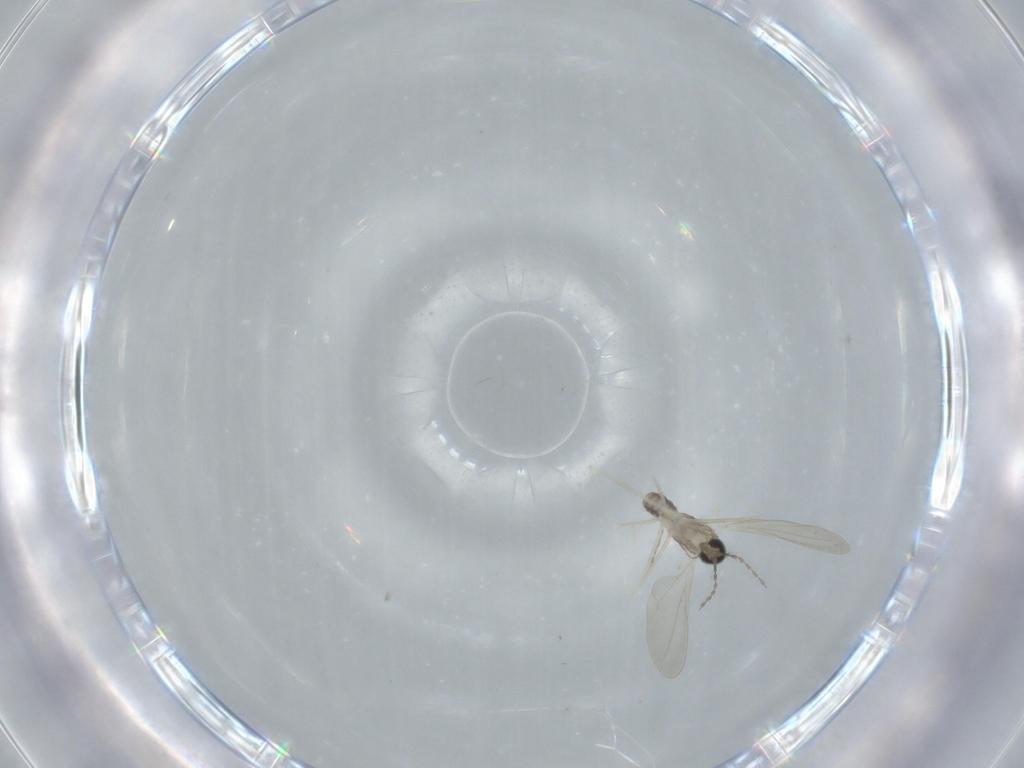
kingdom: Animalia
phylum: Arthropoda
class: Insecta
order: Diptera
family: Cecidomyiidae
